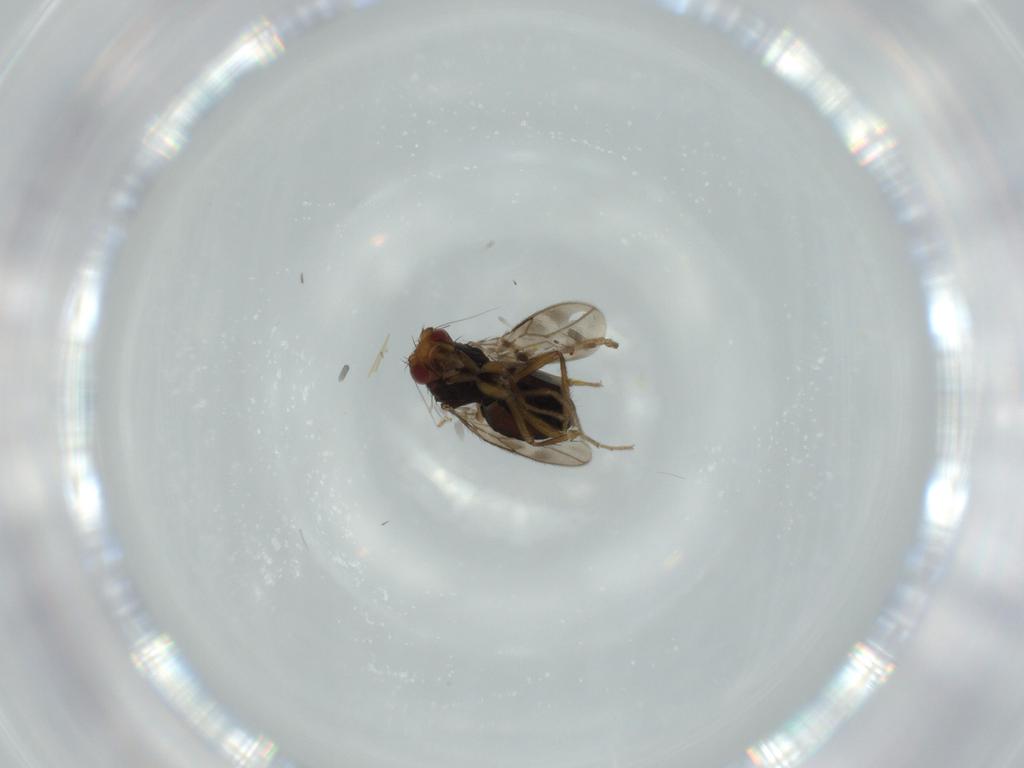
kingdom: Animalia
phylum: Arthropoda
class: Insecta
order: Diptera
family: Sphaeroceridae
